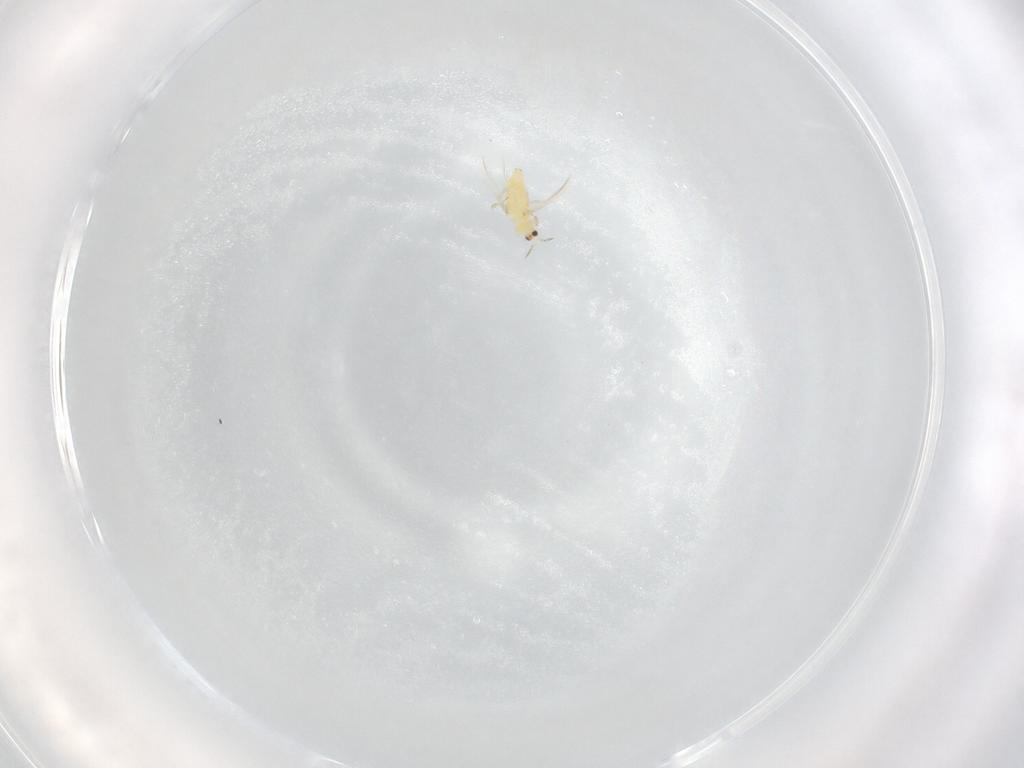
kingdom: Animalia
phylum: Arthropoda
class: Insecta
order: Thysanoptera
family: Thripidae
